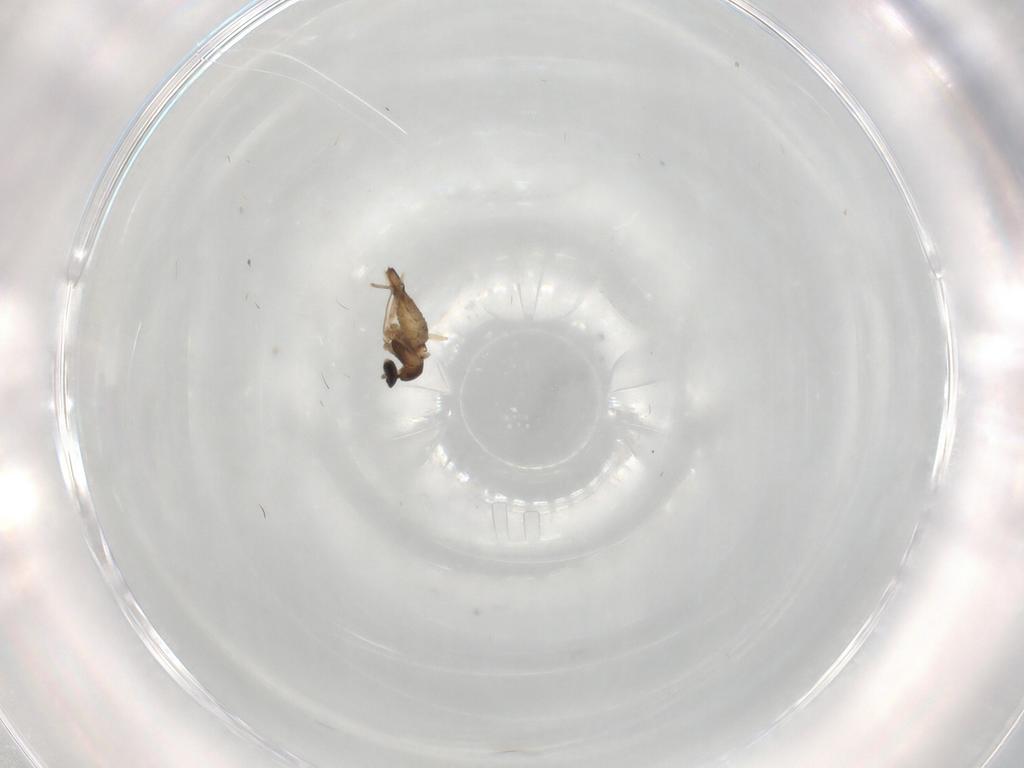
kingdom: Animalia
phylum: Arthropoda
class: Insecta
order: Diptera
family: Cecidomyiidae
